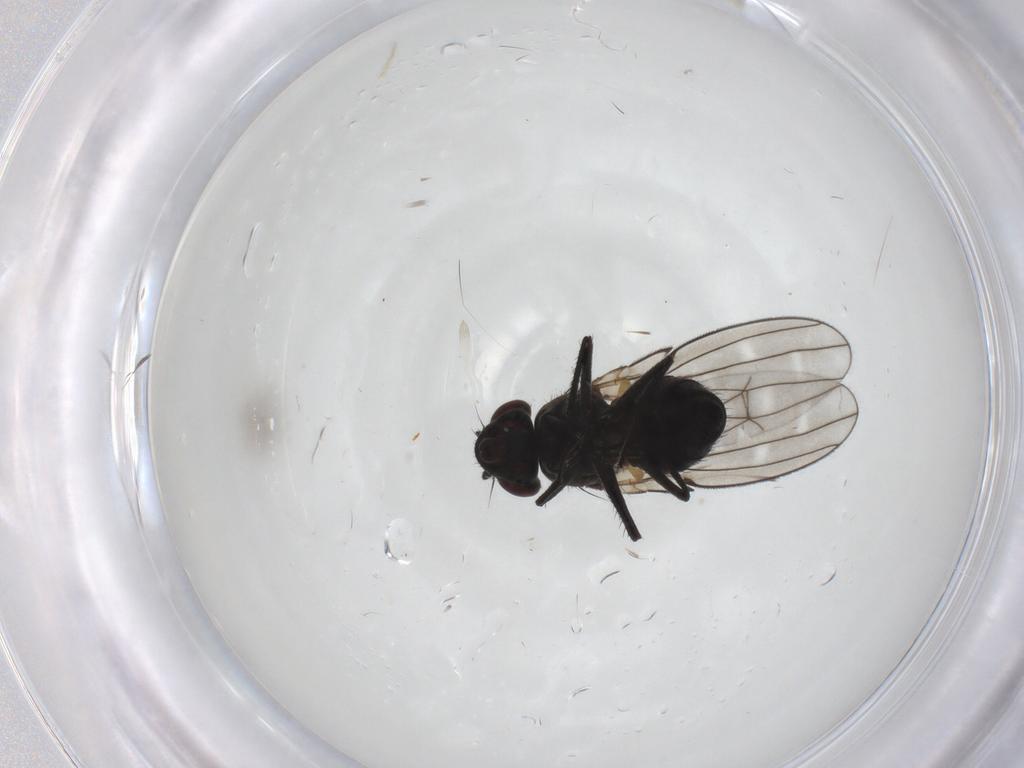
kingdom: Animalia
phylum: Arthropoda
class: Insecta
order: Diptera
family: Ephydridae
